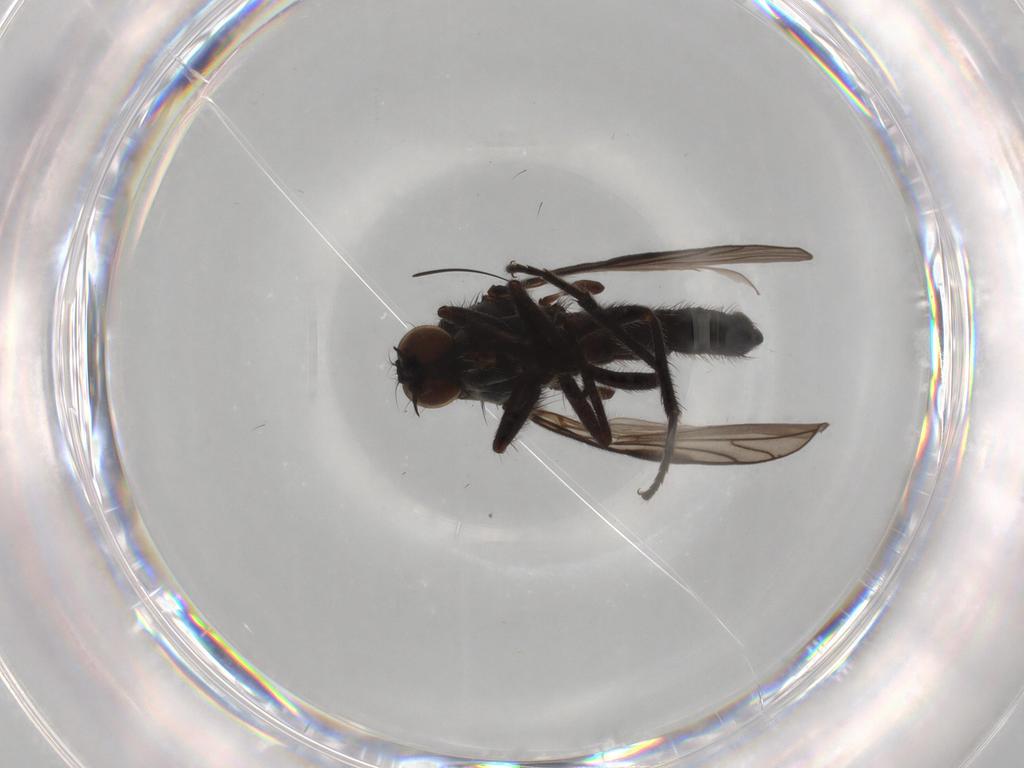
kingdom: Animalia
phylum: Arthropoda
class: Insecta
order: Diptera
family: Empididae
